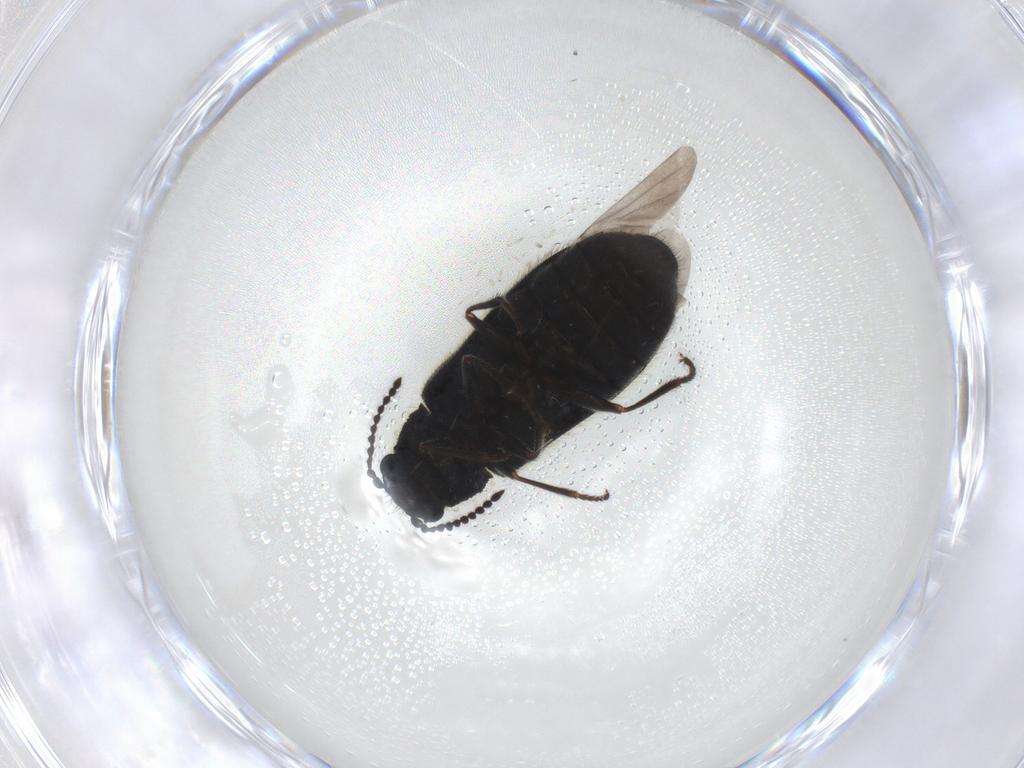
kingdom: Animalia
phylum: Arthropoda
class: Insecta
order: Coleoptera
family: Melyridae
